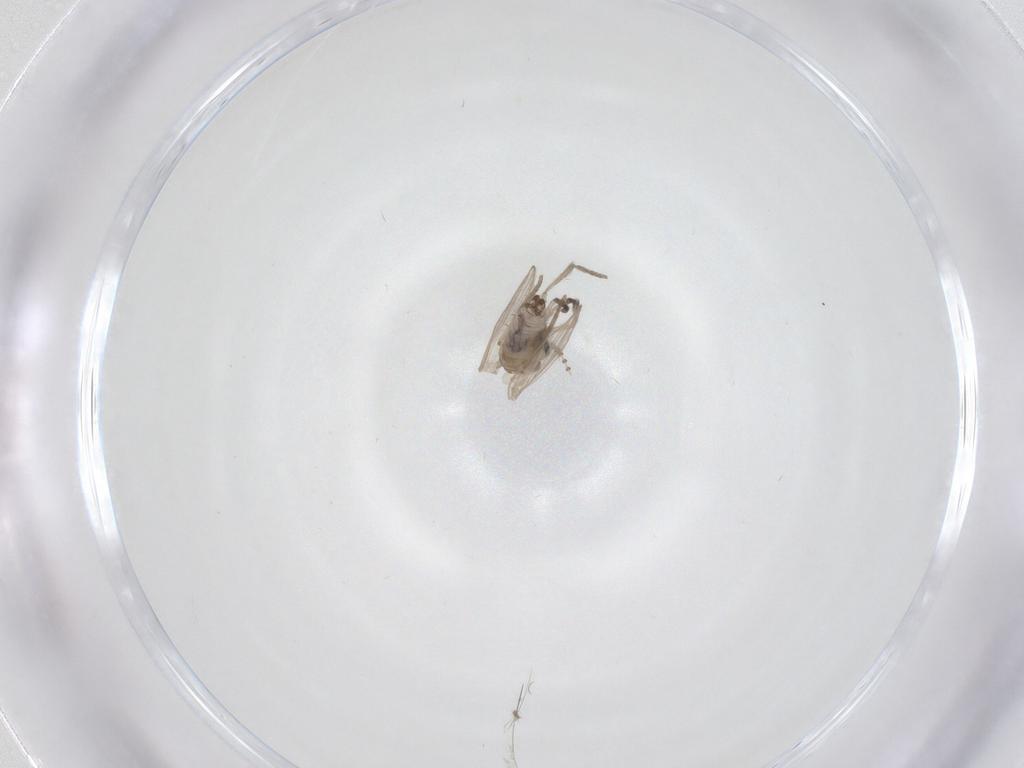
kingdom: Animalia
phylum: Arthropoda
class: Insecta
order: Diptera
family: Psychodidae
